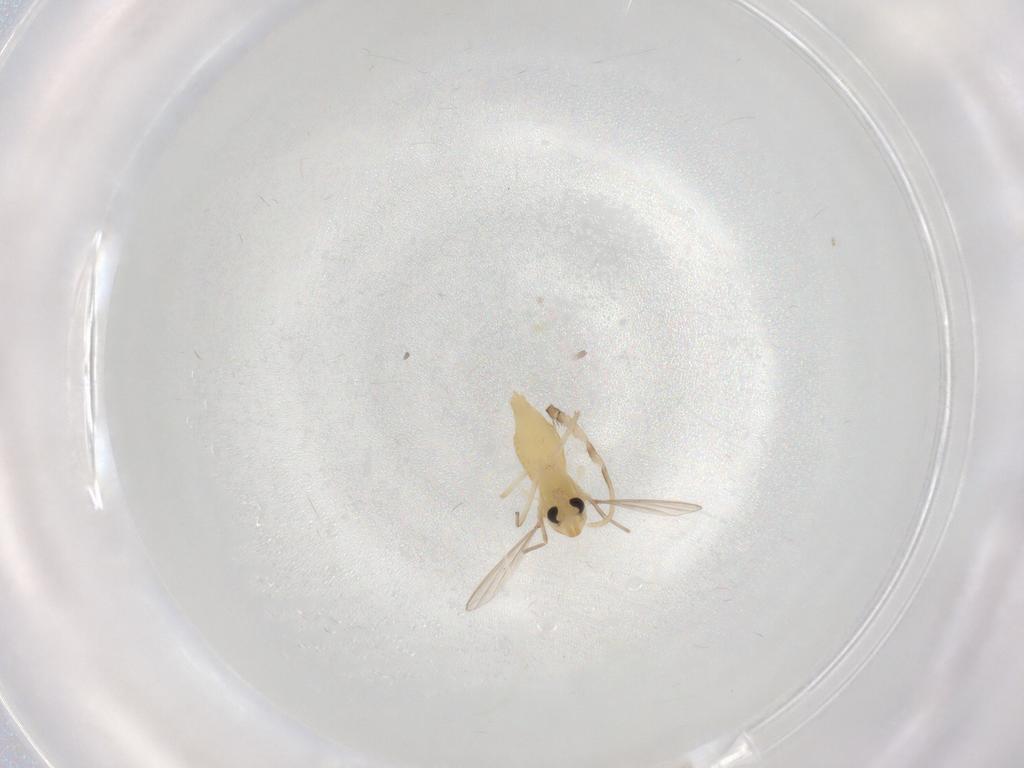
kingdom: Animalia
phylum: Arthropoda
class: Insecta
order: Diptera
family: Chironomidae
